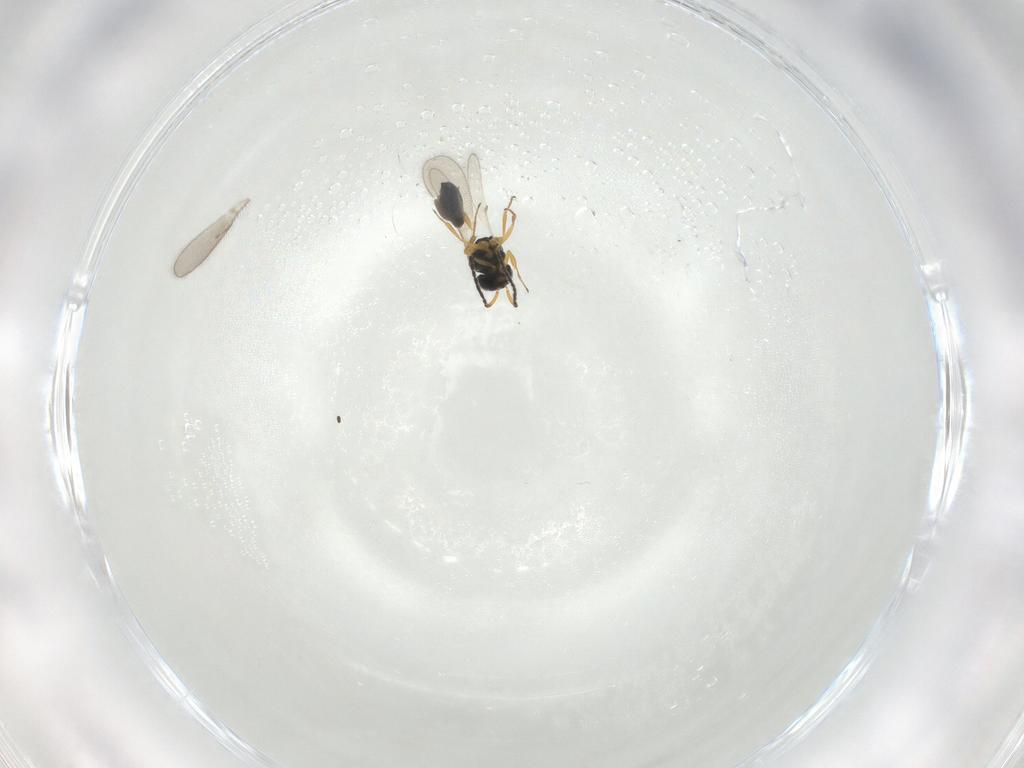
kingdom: Animalia
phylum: Arthropoda
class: Insecta
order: Hymenoptera
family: Scelionidae
